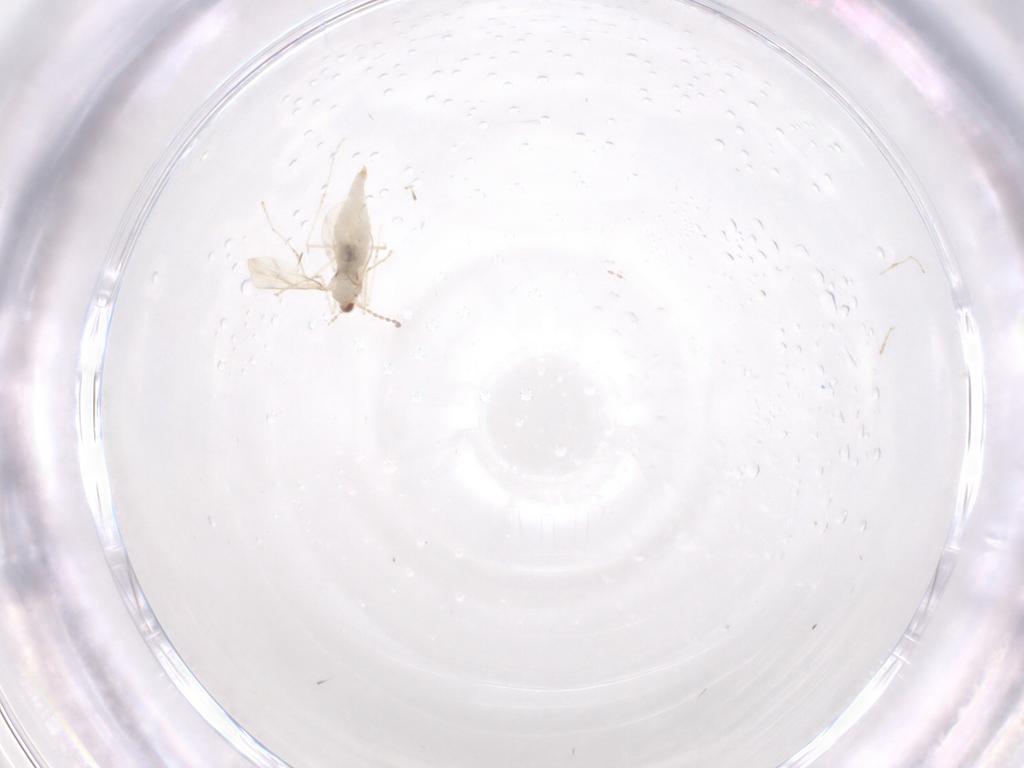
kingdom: Animalia
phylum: Arthropoda
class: Insecta
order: Diptera
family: Cecidomyiidae
